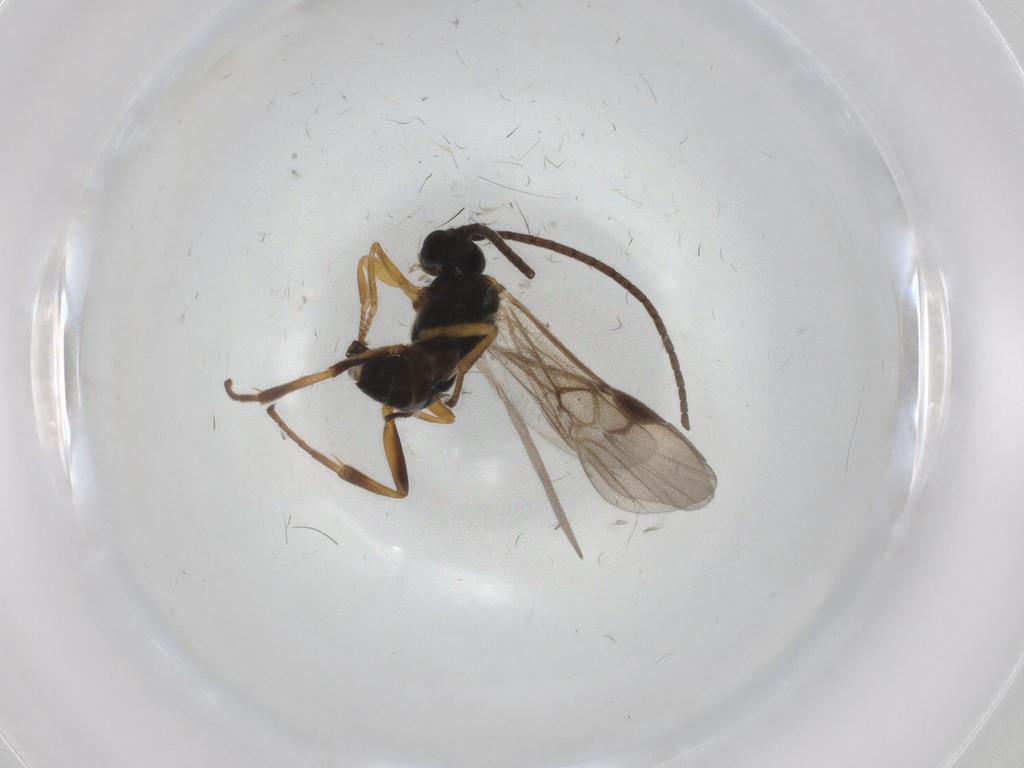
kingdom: Animalia
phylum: Arthropoda
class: Insecta
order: Hymenoptera
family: Braconidae
